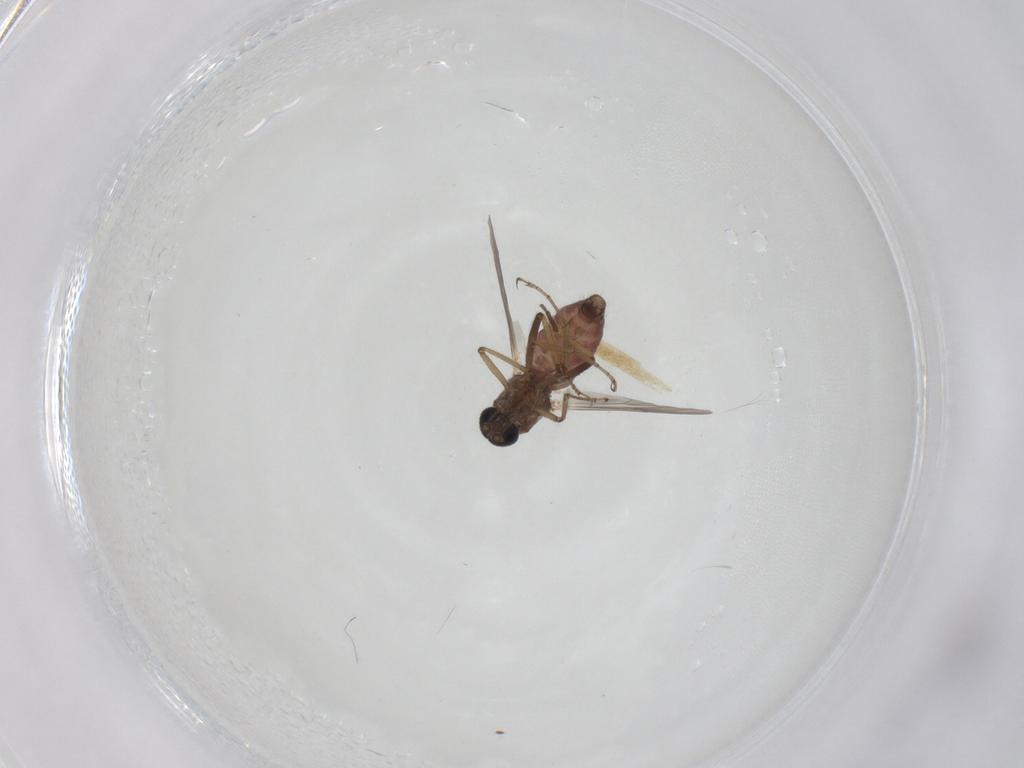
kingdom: Animalia
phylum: Arthropoda
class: Insecta
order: Diptera
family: Ceratopogonidae
